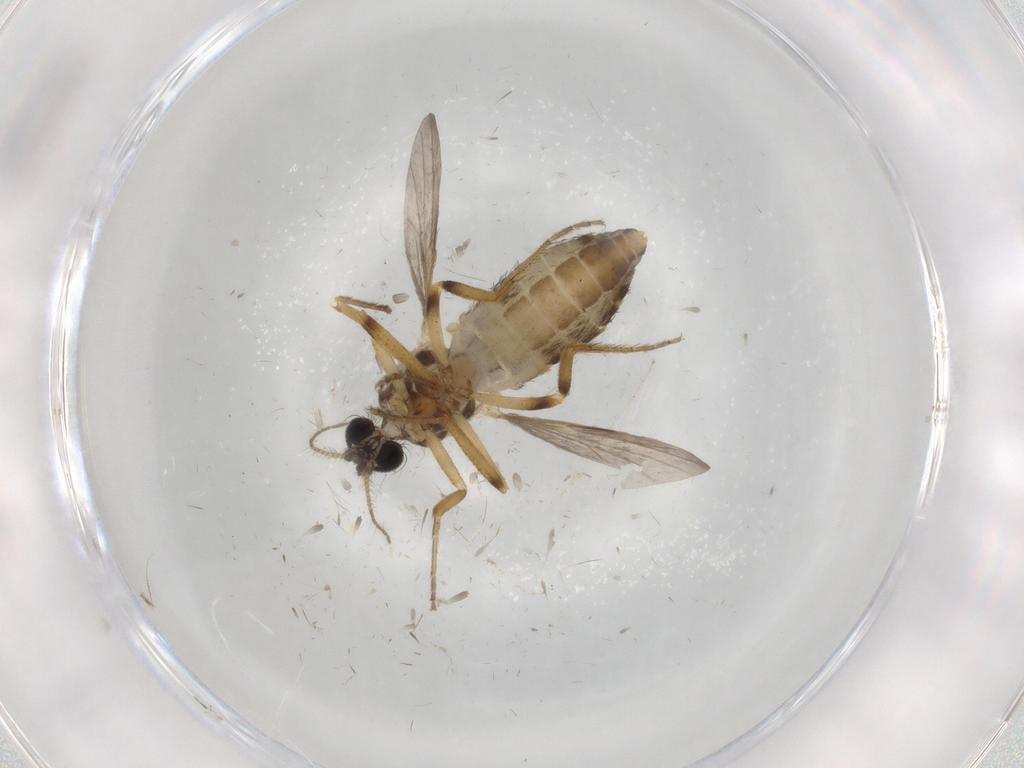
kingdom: Animalia
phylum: Arthropoda
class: Insecta
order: Diptera
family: Ceratopogonidae
